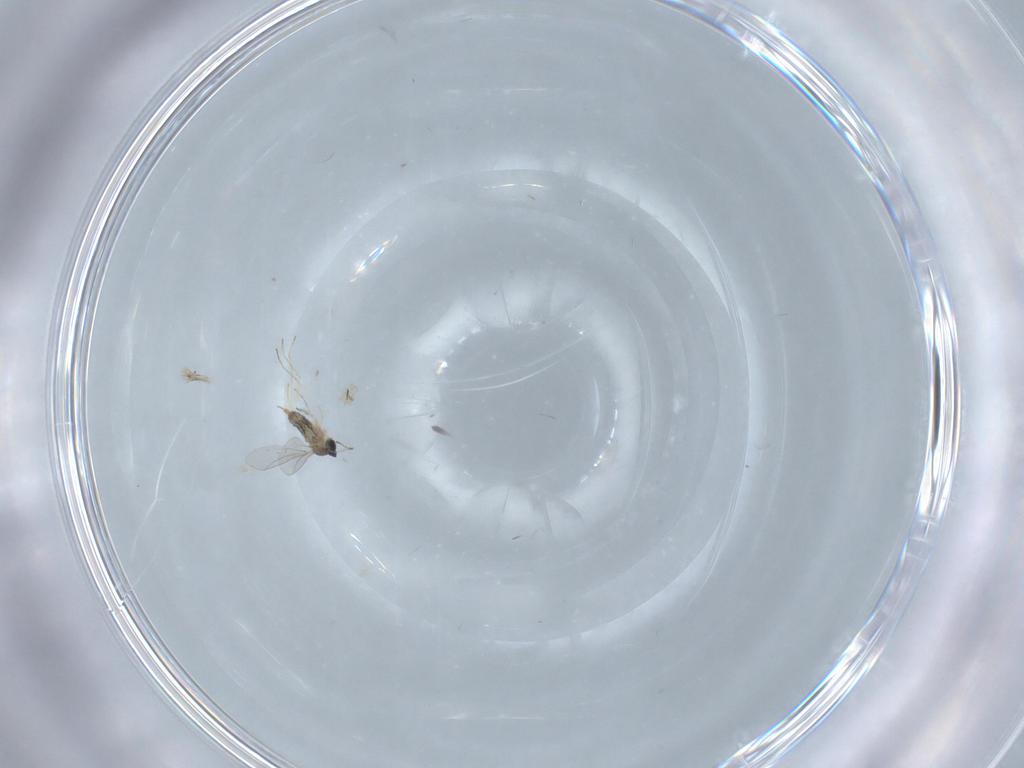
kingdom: Animalia
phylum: Arthropoda
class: Insecta
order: Diptera
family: Cecidomyiidae
